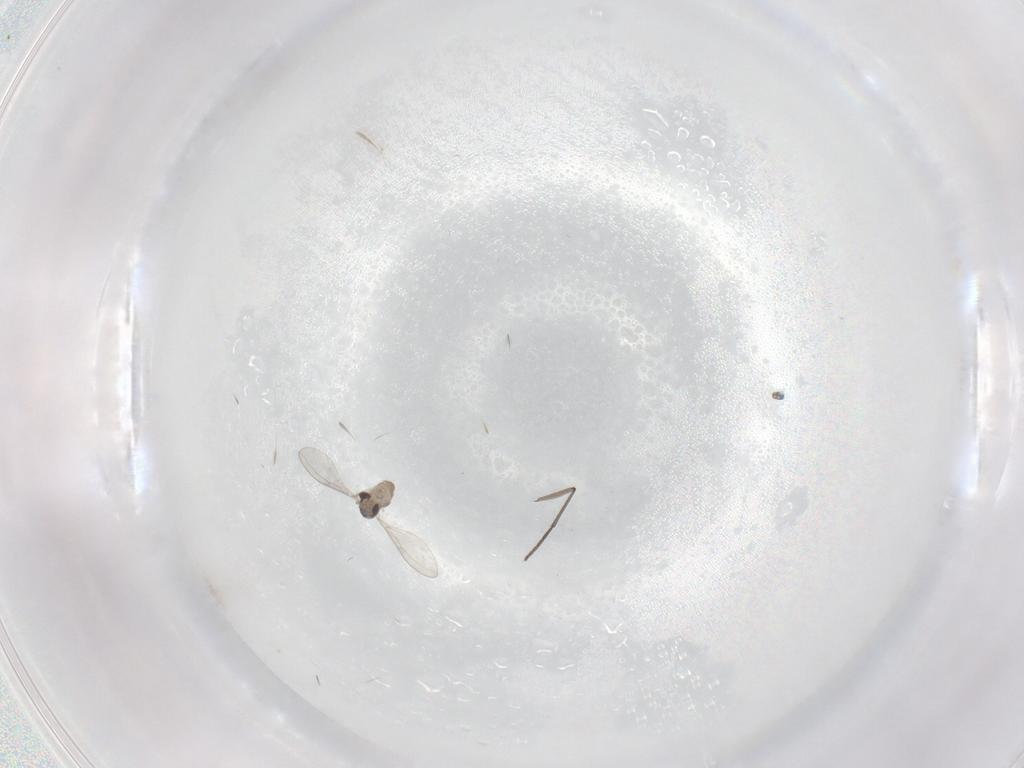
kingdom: Animalia
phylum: Arthropoda
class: Insecta
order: Diptera
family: Cecidomyiidae
